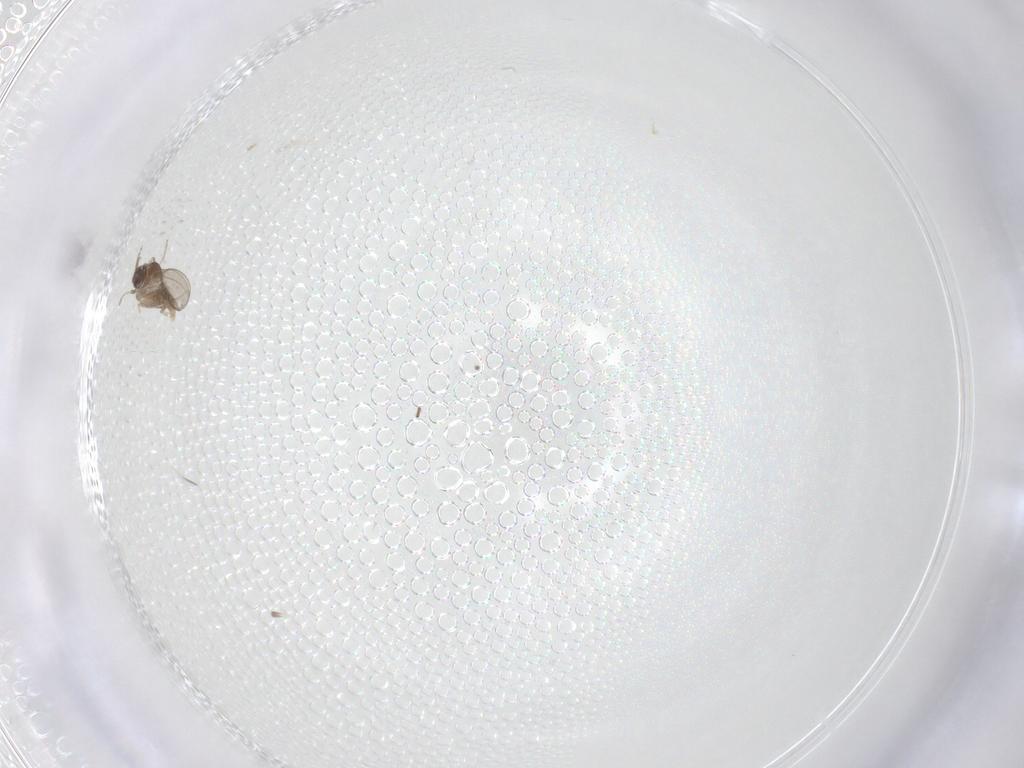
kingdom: Animalia
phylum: Arthropoda
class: Insecta
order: Diptera
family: Cecidomyiidae
